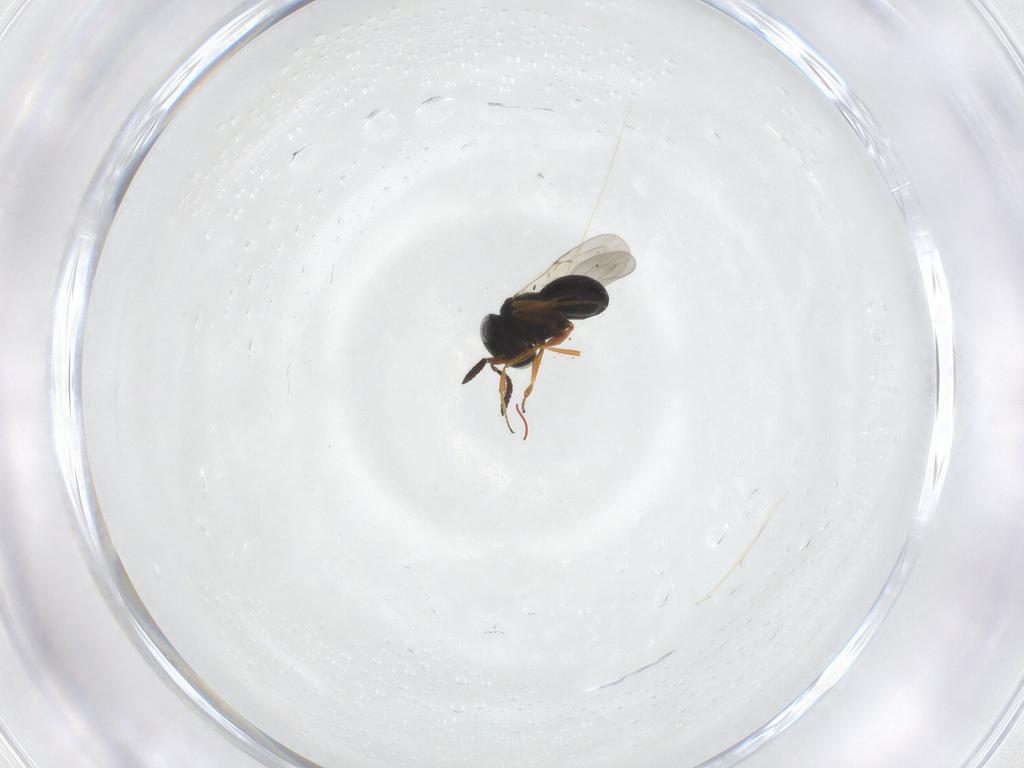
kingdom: Animalia
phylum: Arthropoda
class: Insecta
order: Hymenoptera
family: Scelionidae
